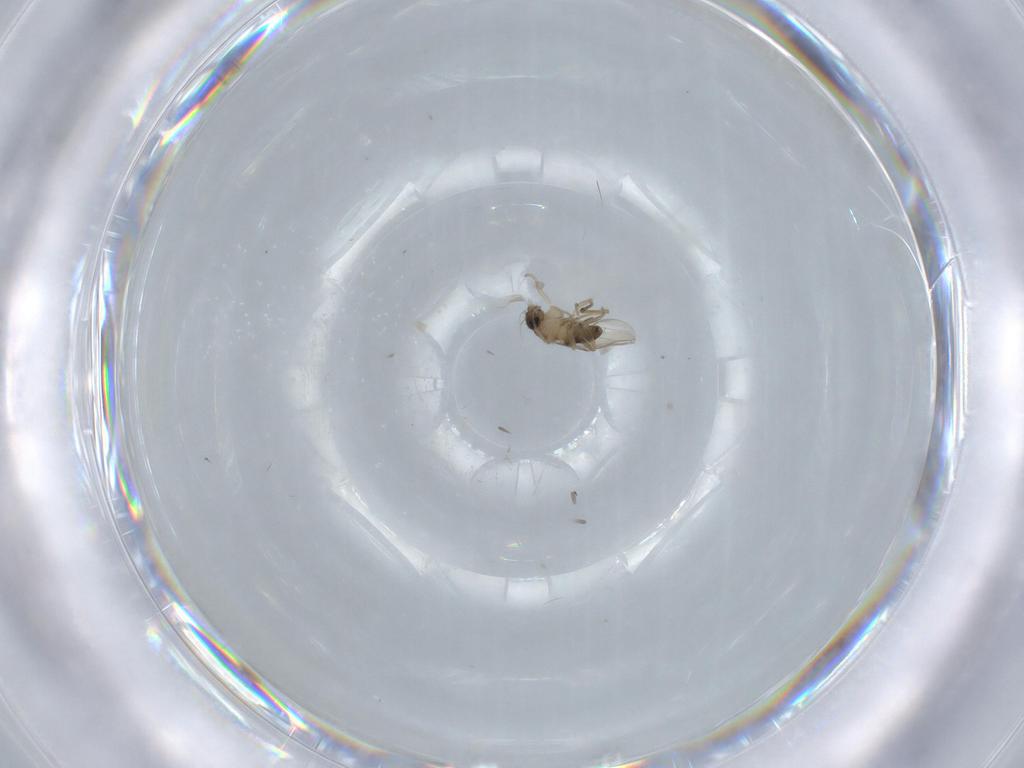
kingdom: Animalia
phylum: Arthropoda
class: Insecta
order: Diptera
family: Phoridae
